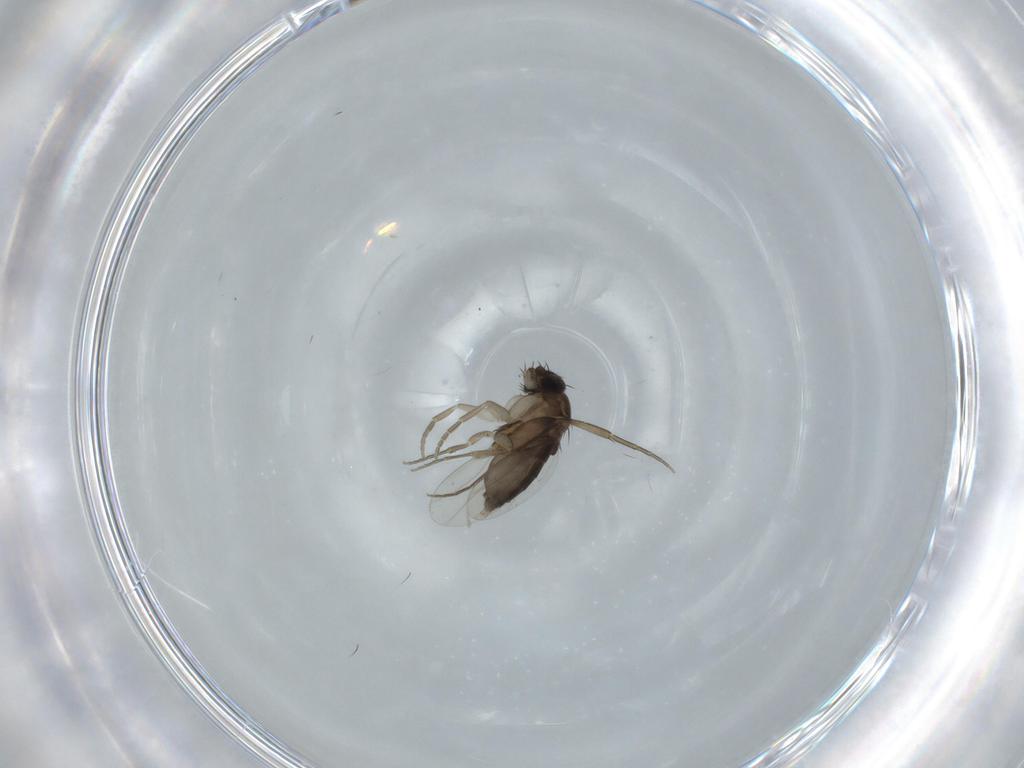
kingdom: Animalia
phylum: Arthropoda
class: Insecta
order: Diptera
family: Phoridae
